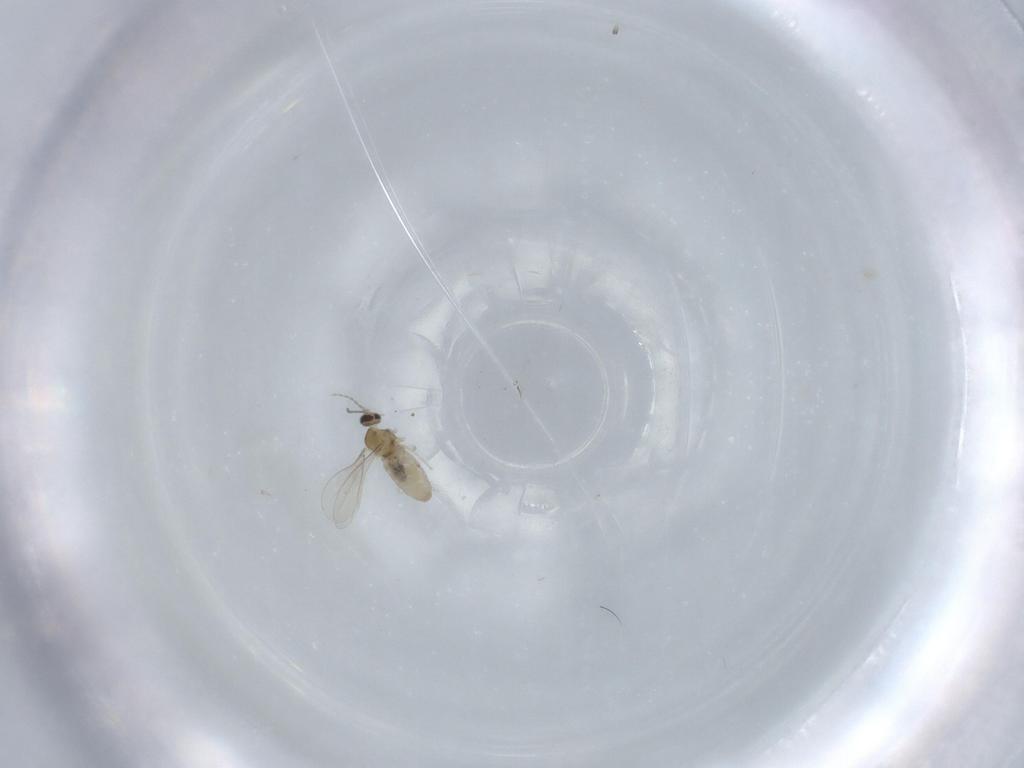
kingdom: Animalia
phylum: Arthropoda
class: Insecta
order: Diptera
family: Dolichopodidae
